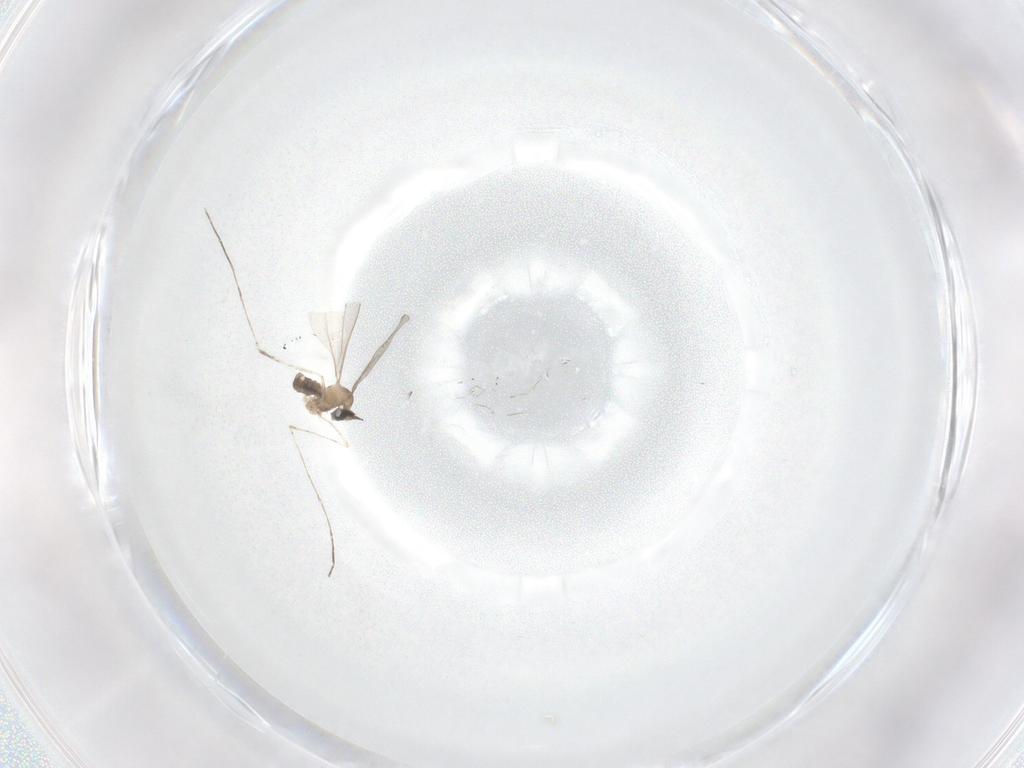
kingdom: Animalia
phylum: Arthropoda
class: Insecta
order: Diptera
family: Cecidomyiidae
